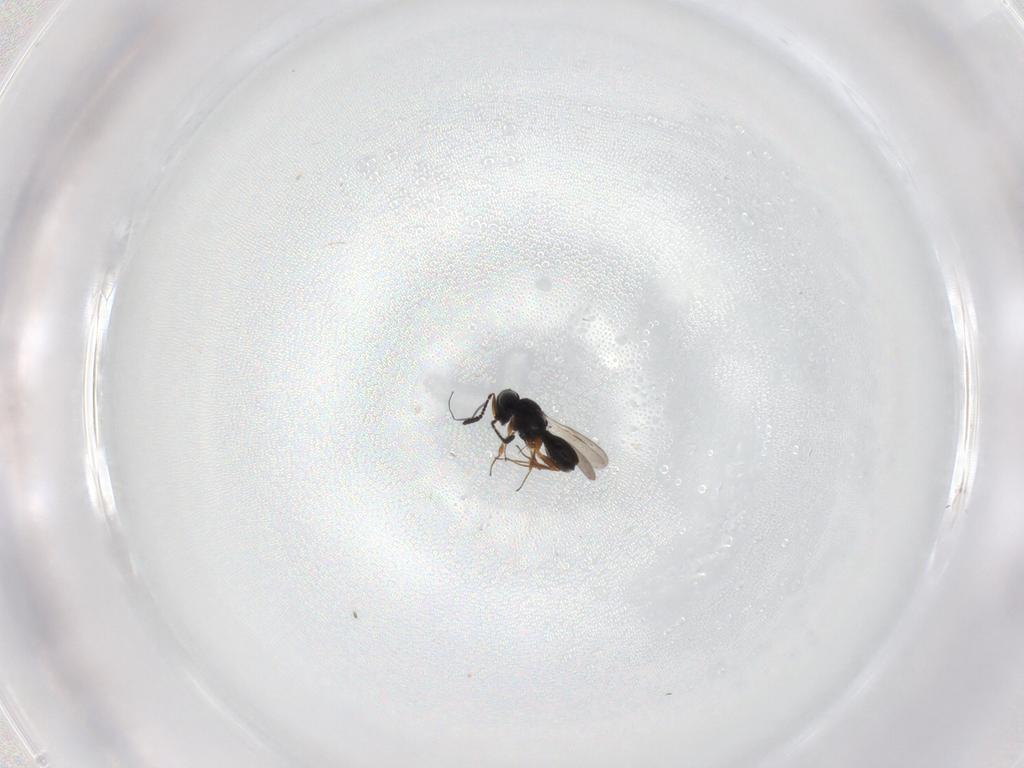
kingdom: Animalia
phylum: Arthropoda
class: Insecta
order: Hymenoptera
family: Scelionidae
